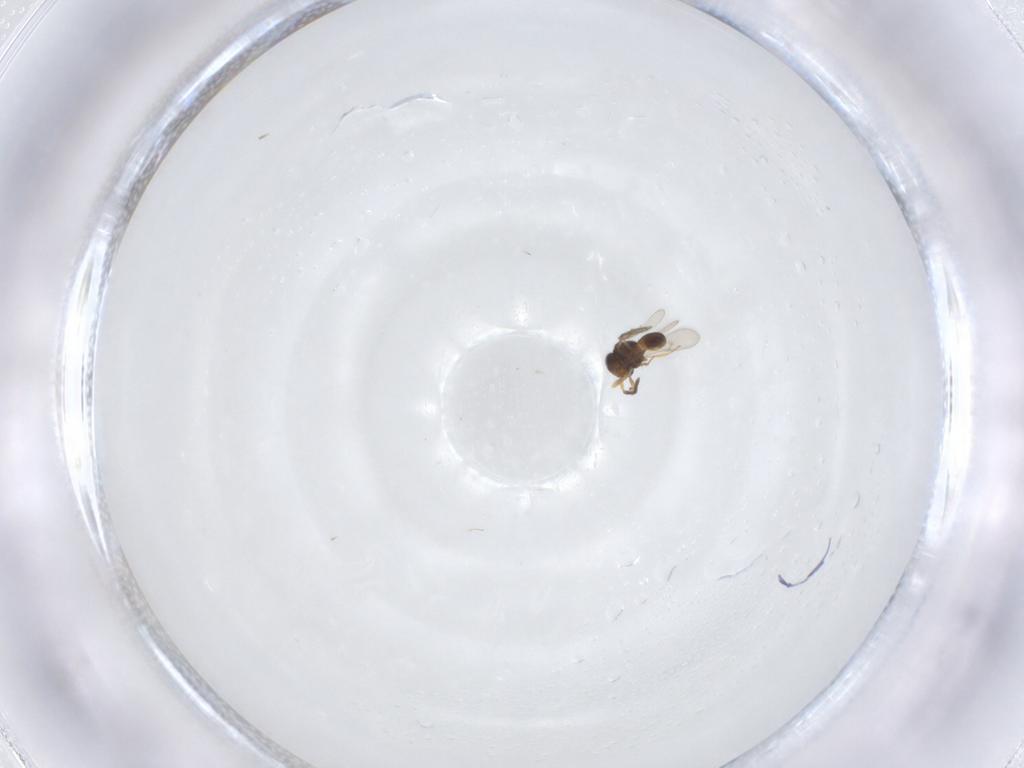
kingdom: Animalia
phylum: Arthropoda
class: Insecta
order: Hymenoptera
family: Scelionidae
